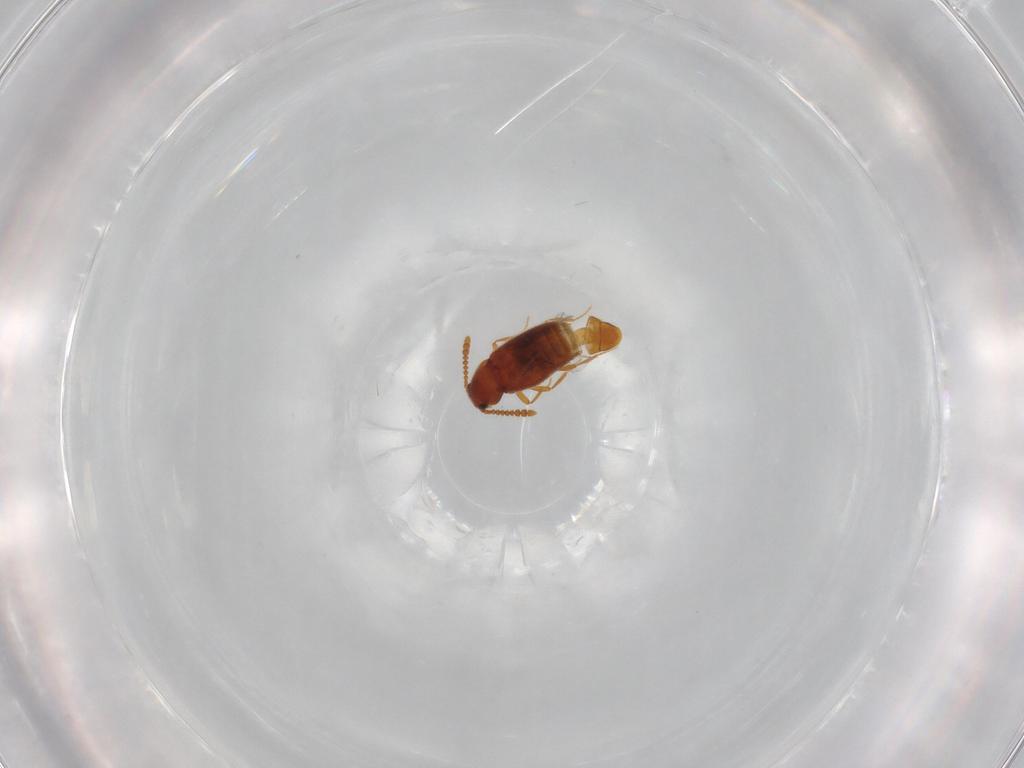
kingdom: Animalia
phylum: Arthropoda
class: Insecta
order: Coleoptera
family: Staphylinidae
